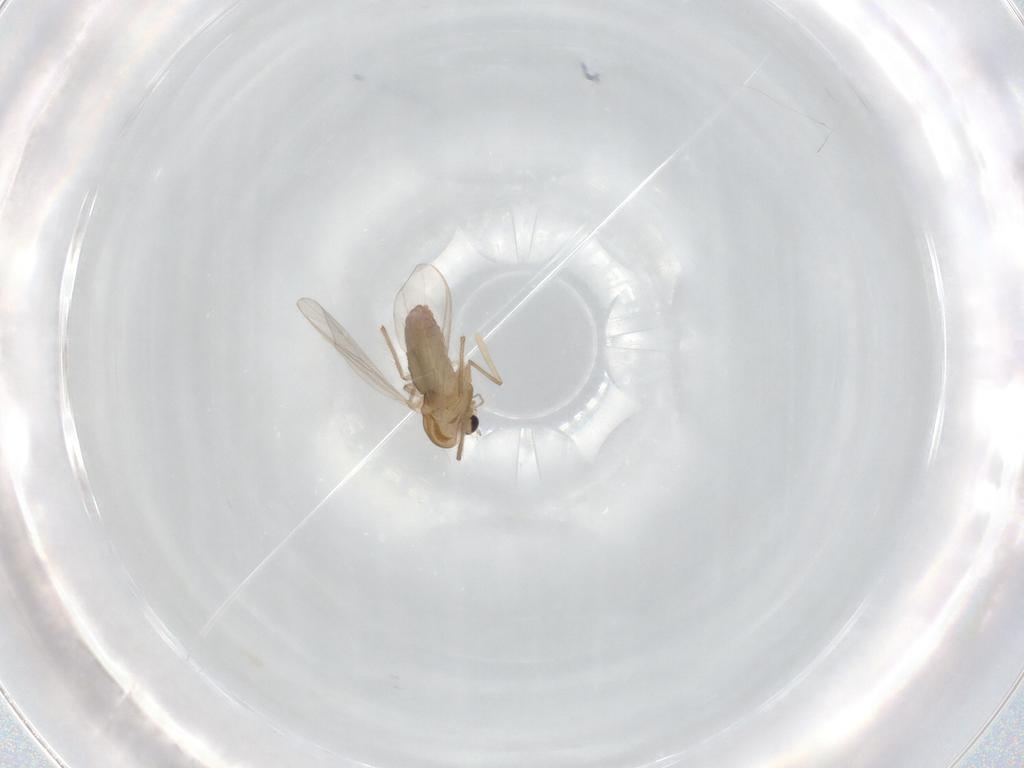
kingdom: Animalia
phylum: Arthropoda
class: Insecta
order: Diptera
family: Chironomidae
